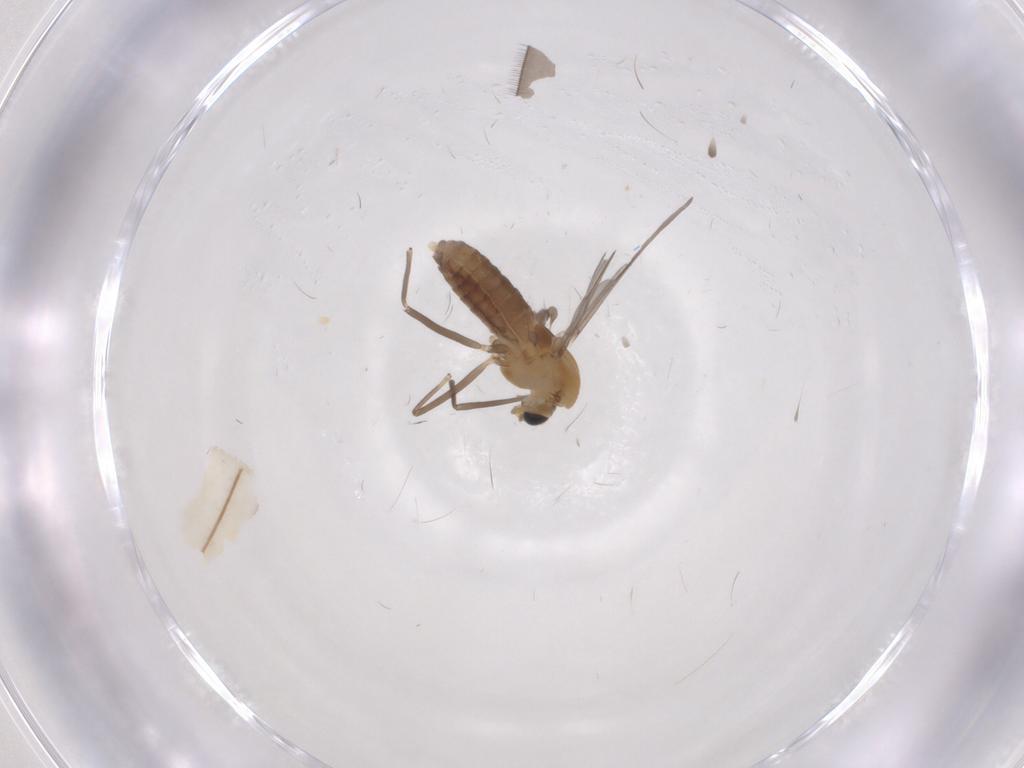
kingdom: Animalia
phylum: Arthropoda
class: Insecta
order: Diptera
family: Chironomidae
